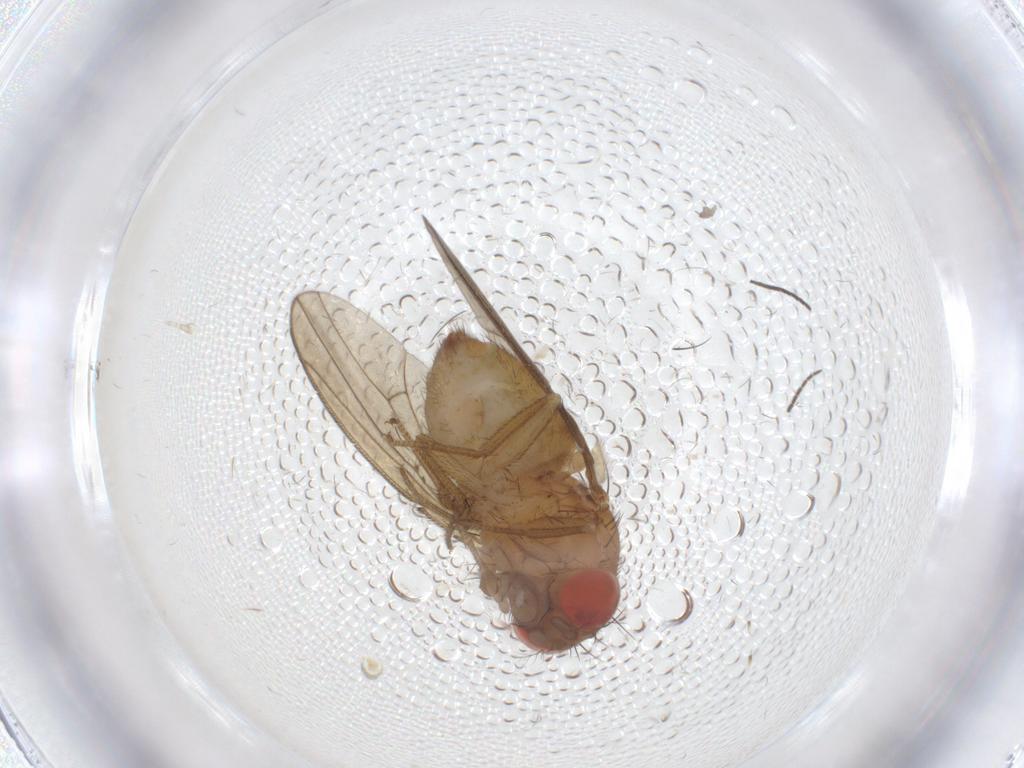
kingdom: Animalia
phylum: Arthropoda
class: Insecta
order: Diptera
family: Drosophilidae
